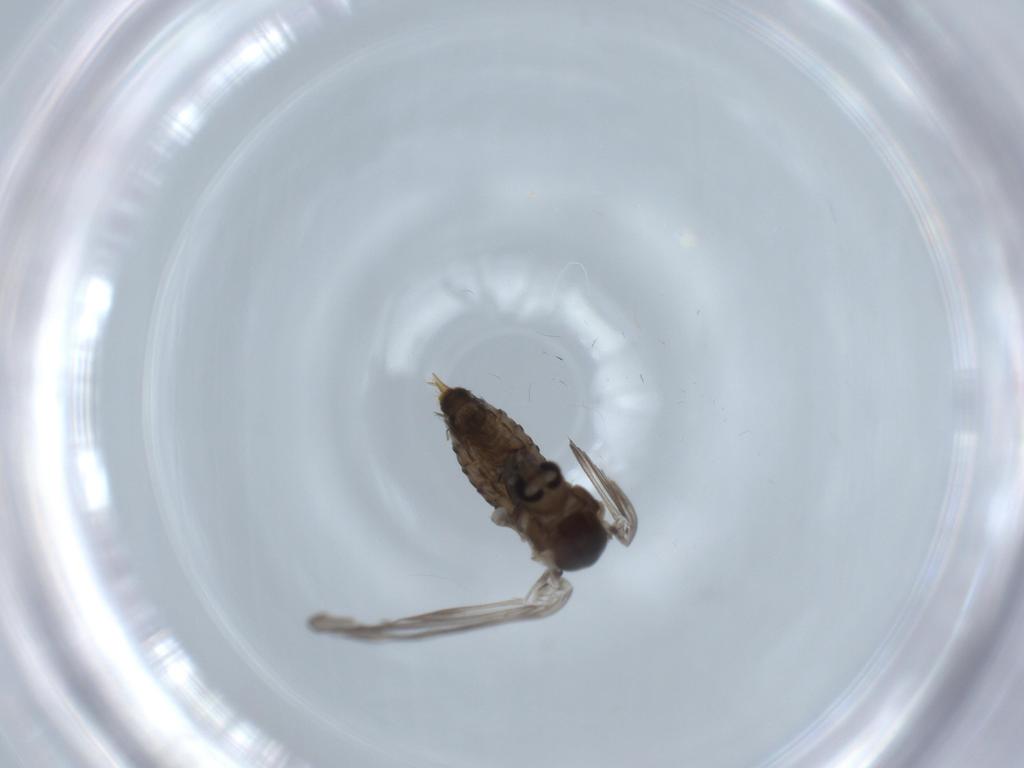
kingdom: Animalia
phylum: Arthropoda
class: Insecta
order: Diptera
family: Psychodidae
